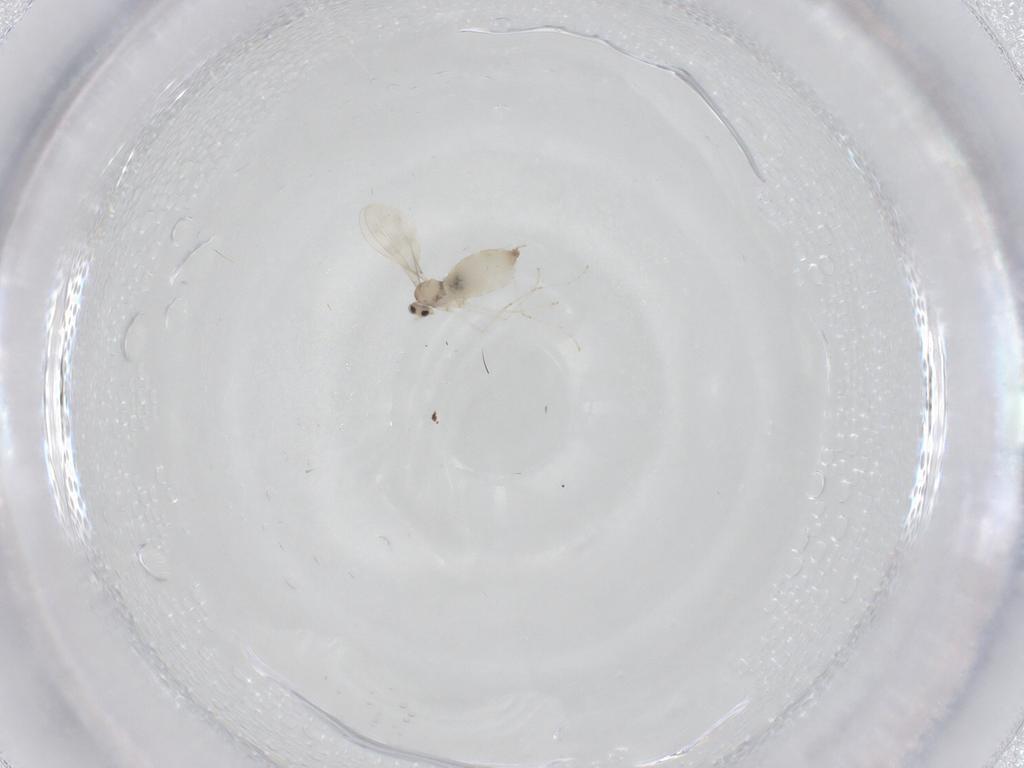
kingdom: Animalia
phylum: Arthropoda
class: Insecta
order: Diptera
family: Cecidomyiidae
